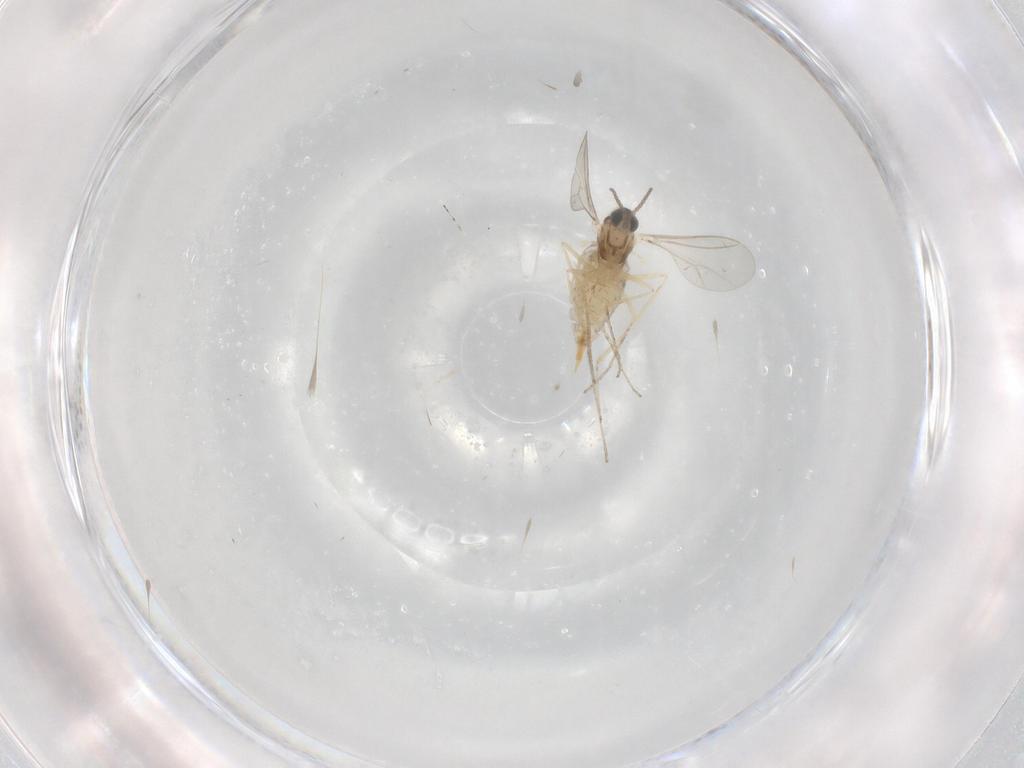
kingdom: Animalia
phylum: Arthropoda
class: Insecta
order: Diptera
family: Cecidomyiidae
